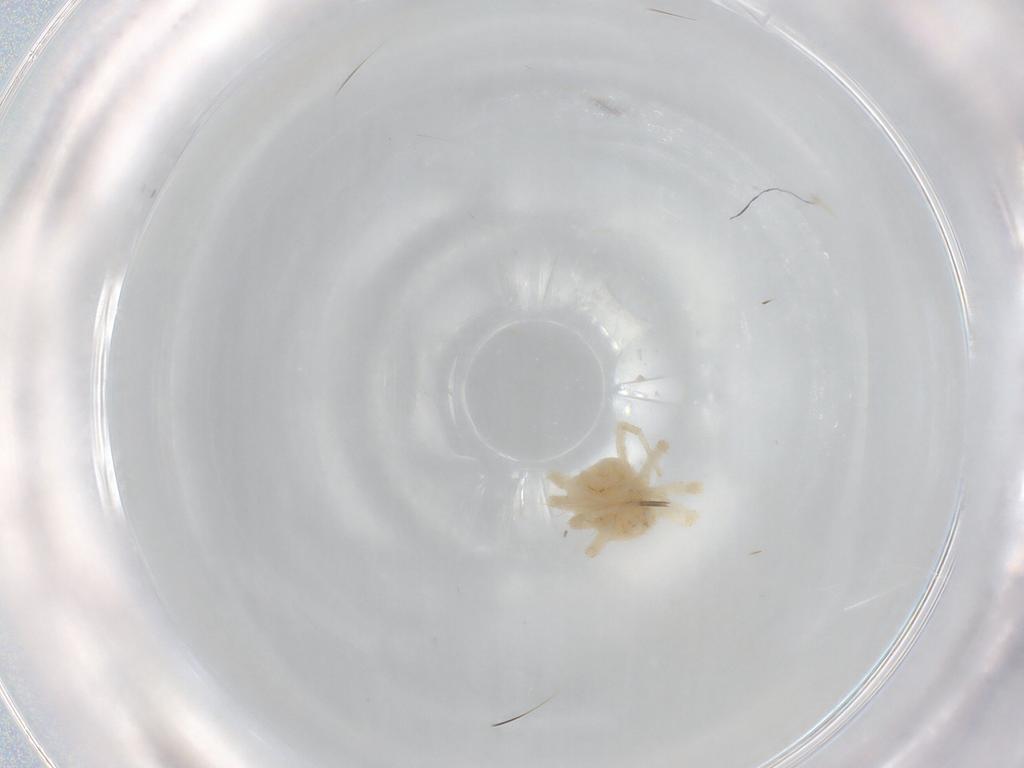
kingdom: Animalia
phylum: Arthropoda
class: Arachnida
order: Trombidiformes
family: Anystidae
